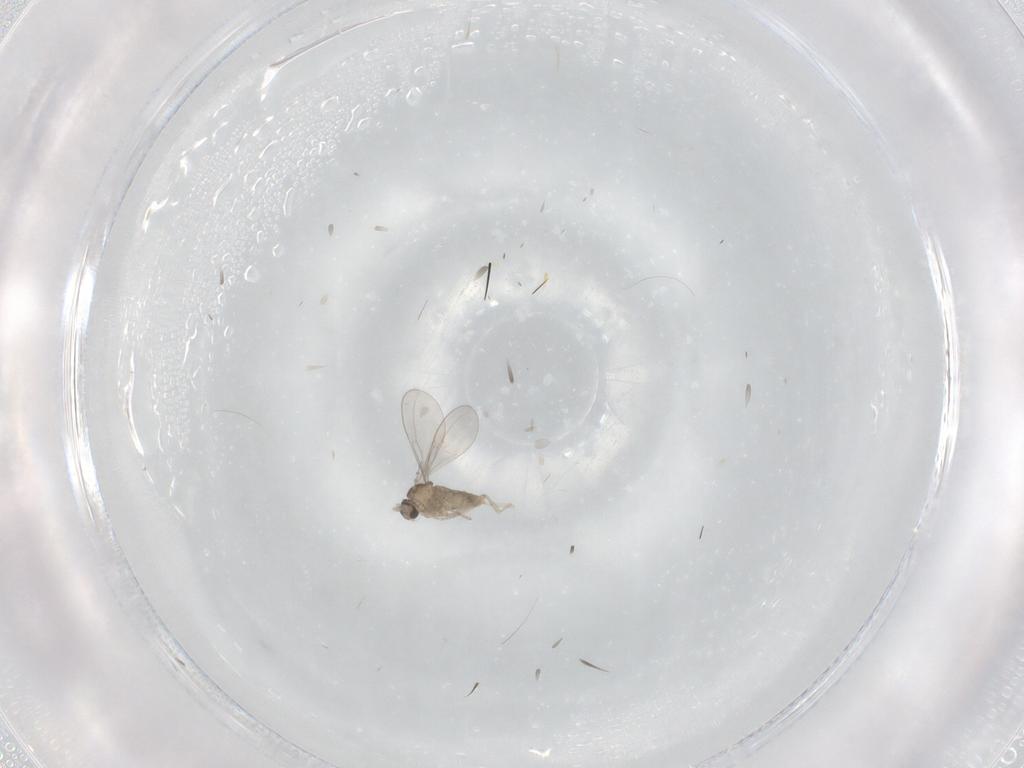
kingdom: Animalia
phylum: Arthropoda
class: Insecta
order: Diptera
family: Cecidomyiidae
